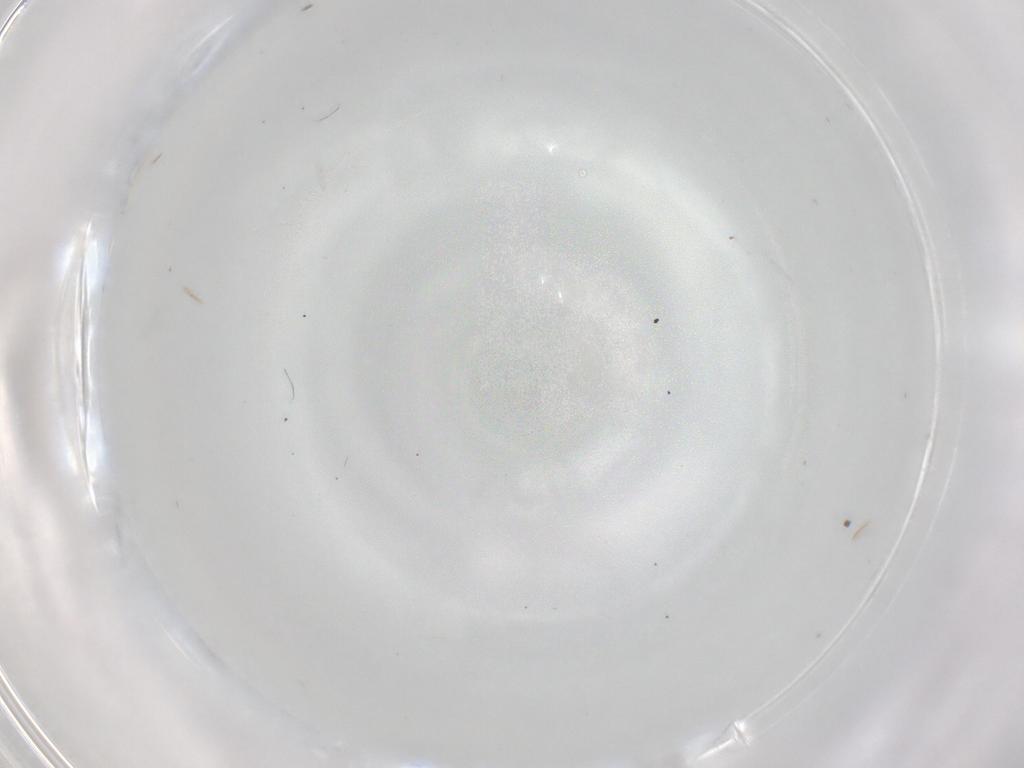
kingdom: Animalia
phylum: Arthropoda
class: Insecta
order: Diptera
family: Cecidomyiidae
